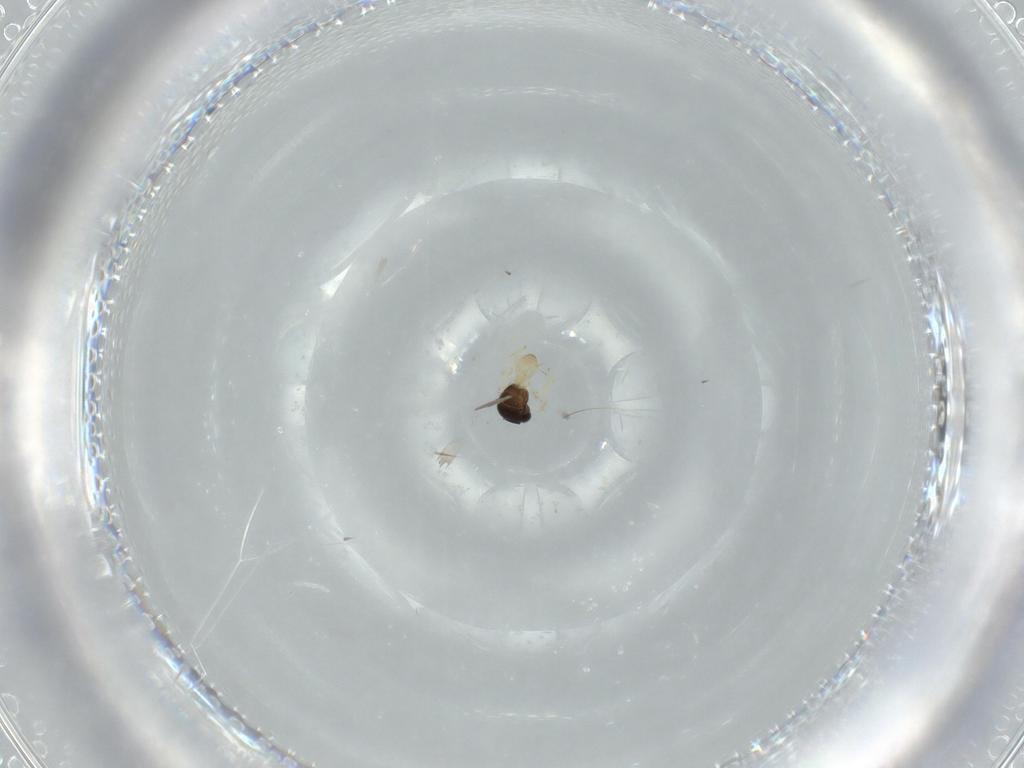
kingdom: Animalia
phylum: Arthropoda
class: Insecta
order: Hymenoptera
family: Scelionidae
